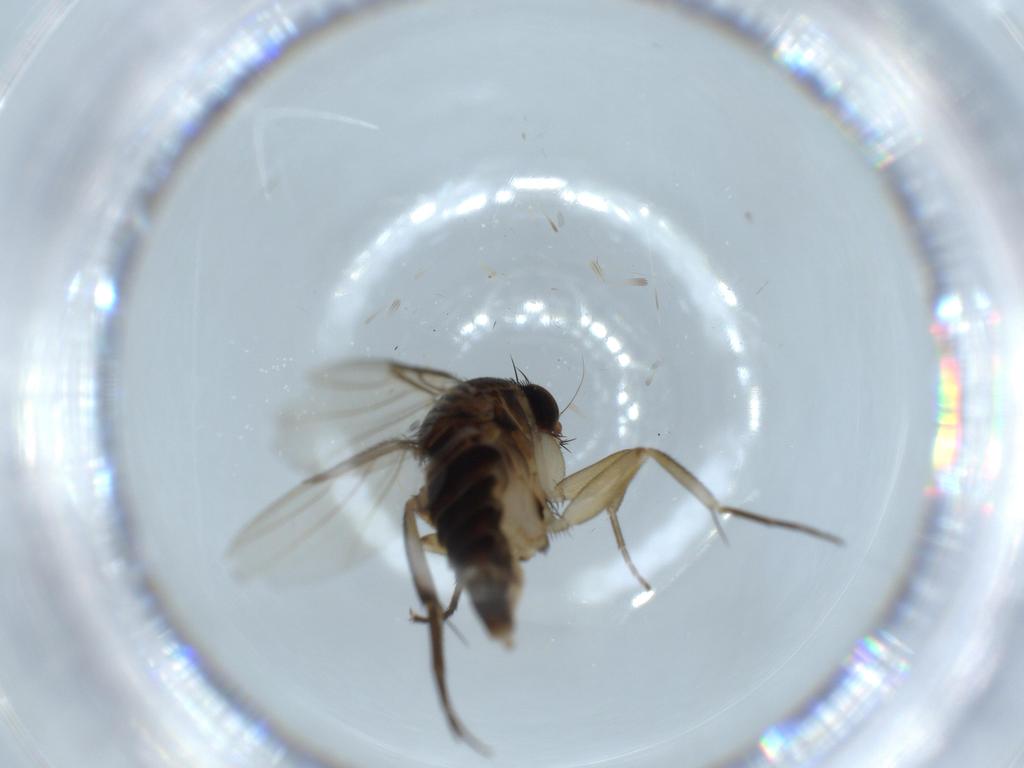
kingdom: Animalia
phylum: Arthropoda
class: Insecta
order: Diptera
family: Phoridae
